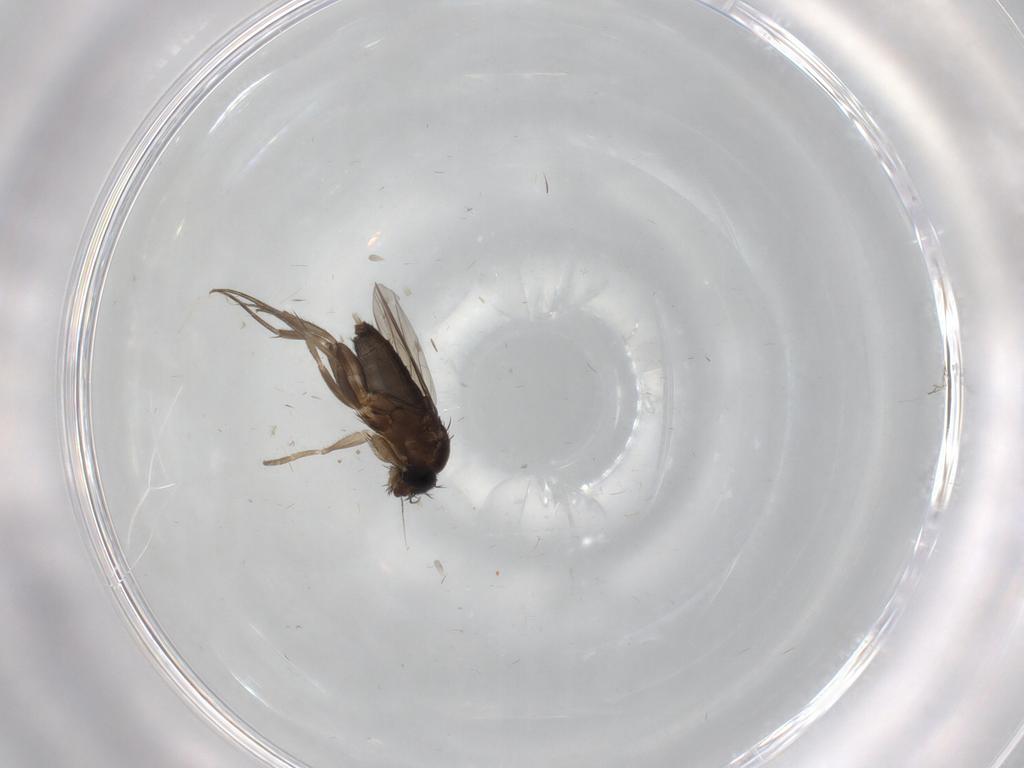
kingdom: Animalia
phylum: Arthropoda
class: Insecta
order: Diptera
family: Phoridae
